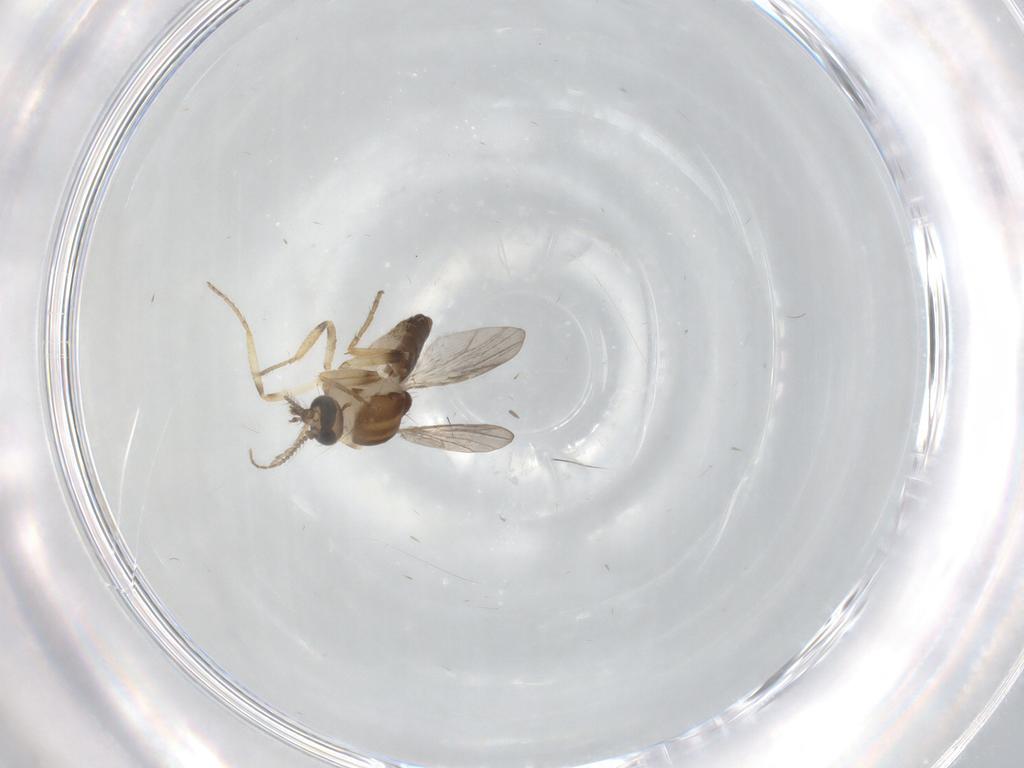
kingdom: Animalia
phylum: Arthropoda
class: Insecta
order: Diptera
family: Ceratopogonidae
